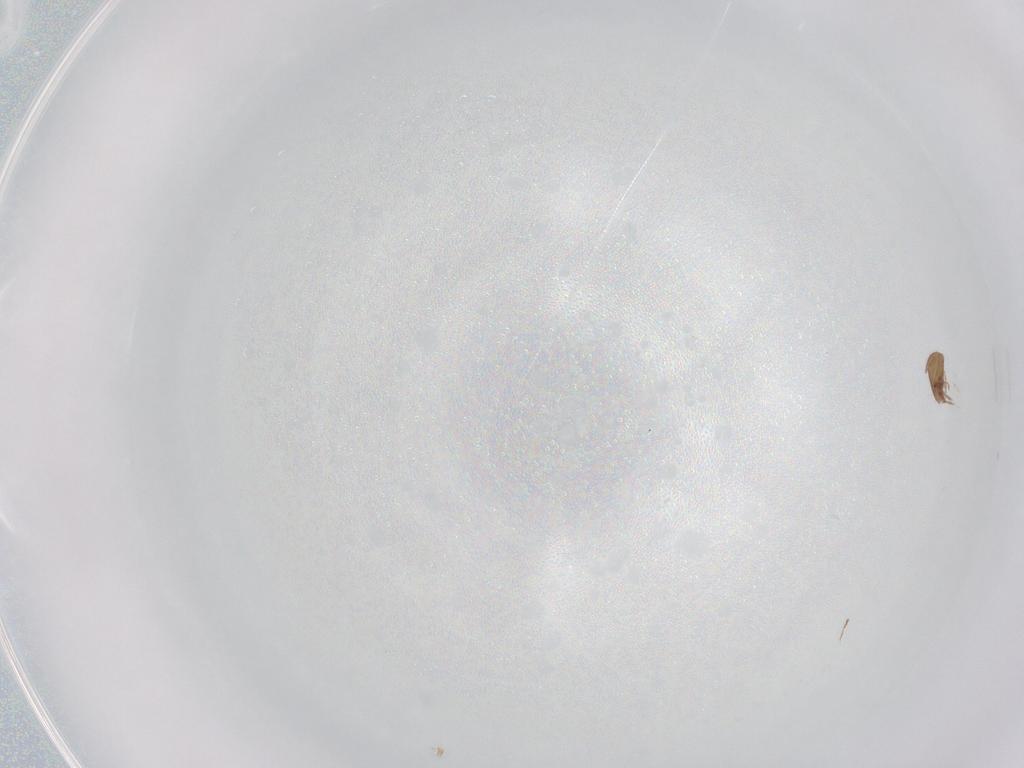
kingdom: Animalia
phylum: Arthropoda
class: Arachnida
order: Sarcoptiformes
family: Oribatulidae
